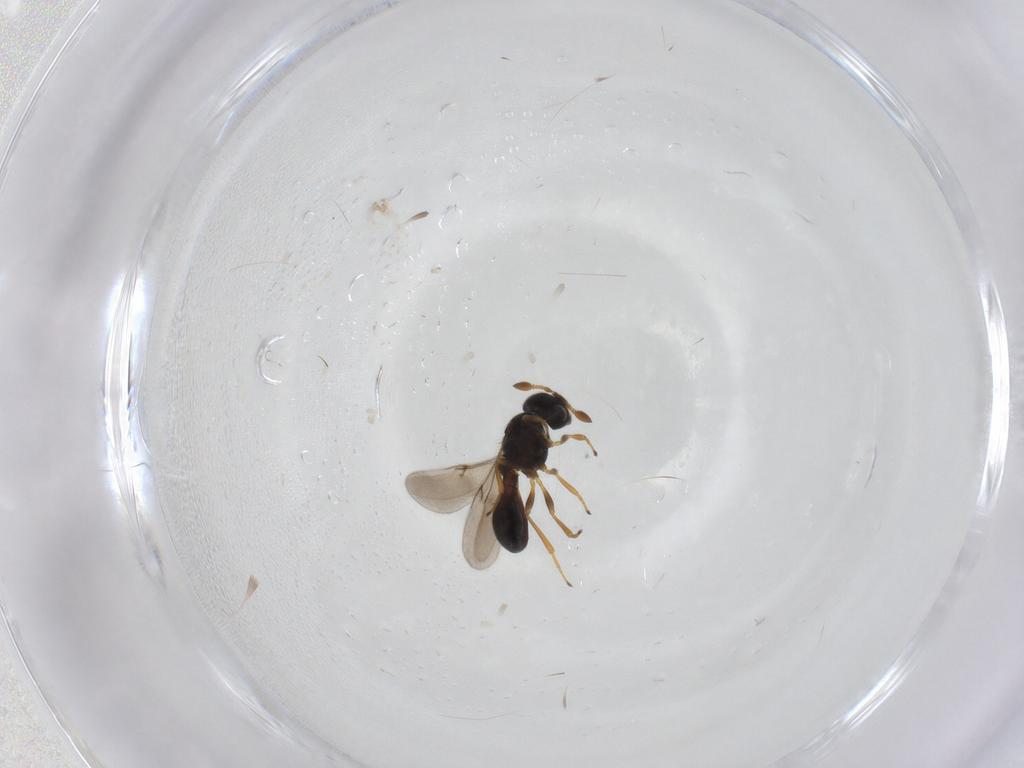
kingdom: Animalia
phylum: Arthropoda
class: Insecta
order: Hymenoptera
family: Scelionidae
